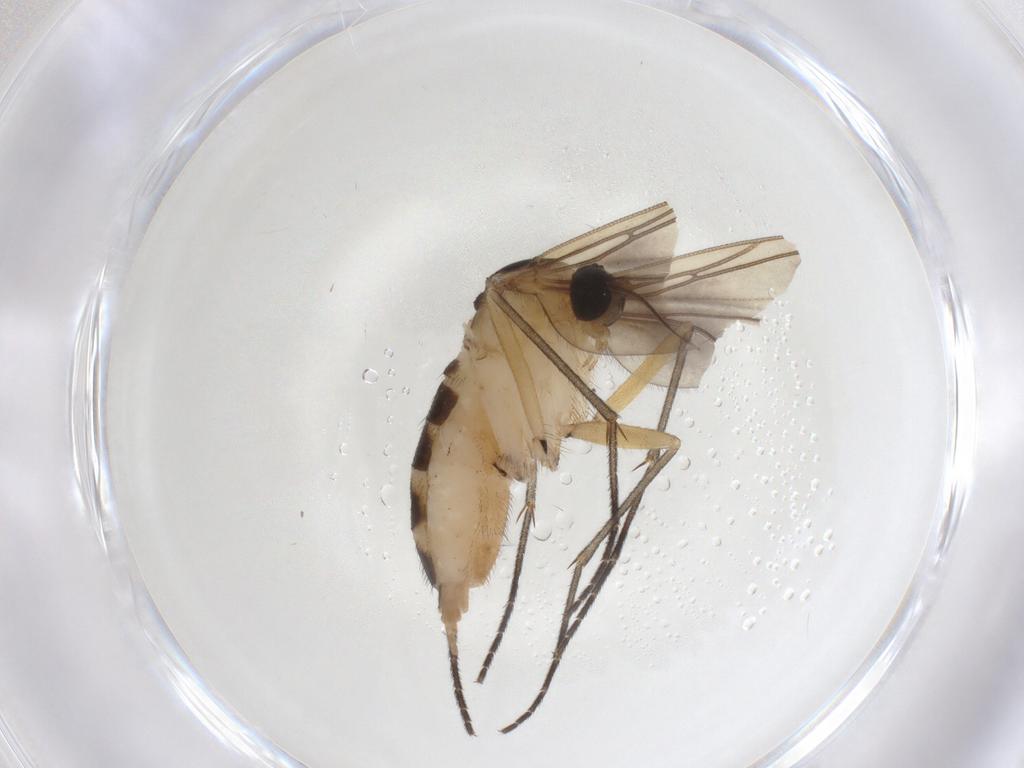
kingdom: Animalia
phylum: Arthropoda
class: Insecta
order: Diptera
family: Sciaridae
